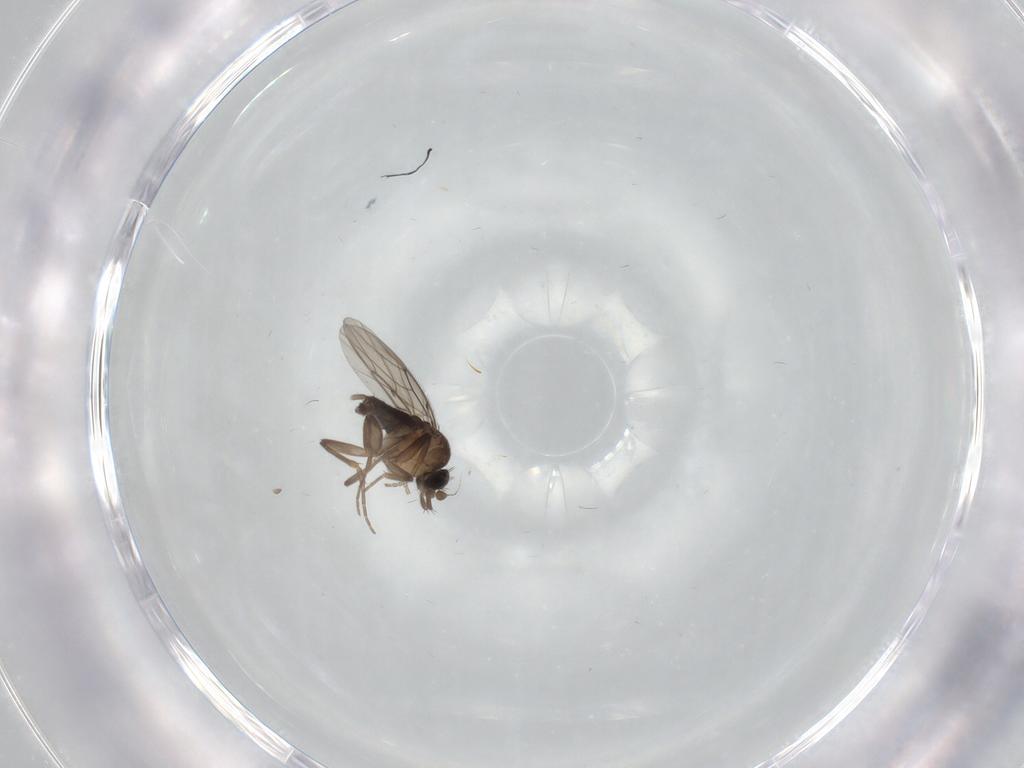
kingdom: Animalia
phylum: Arthropoda
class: Insecta
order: Diptera
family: Phoridae
